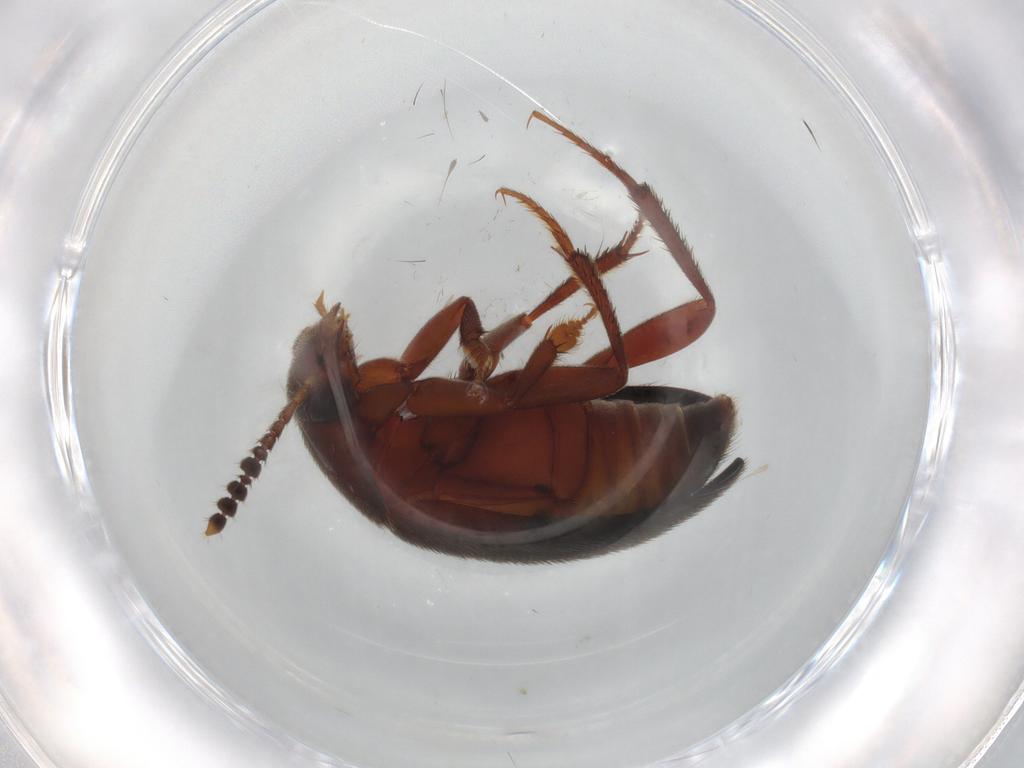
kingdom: Animalia
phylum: Arthropoda
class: Insecta
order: Coleoptera
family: Leiodidae
